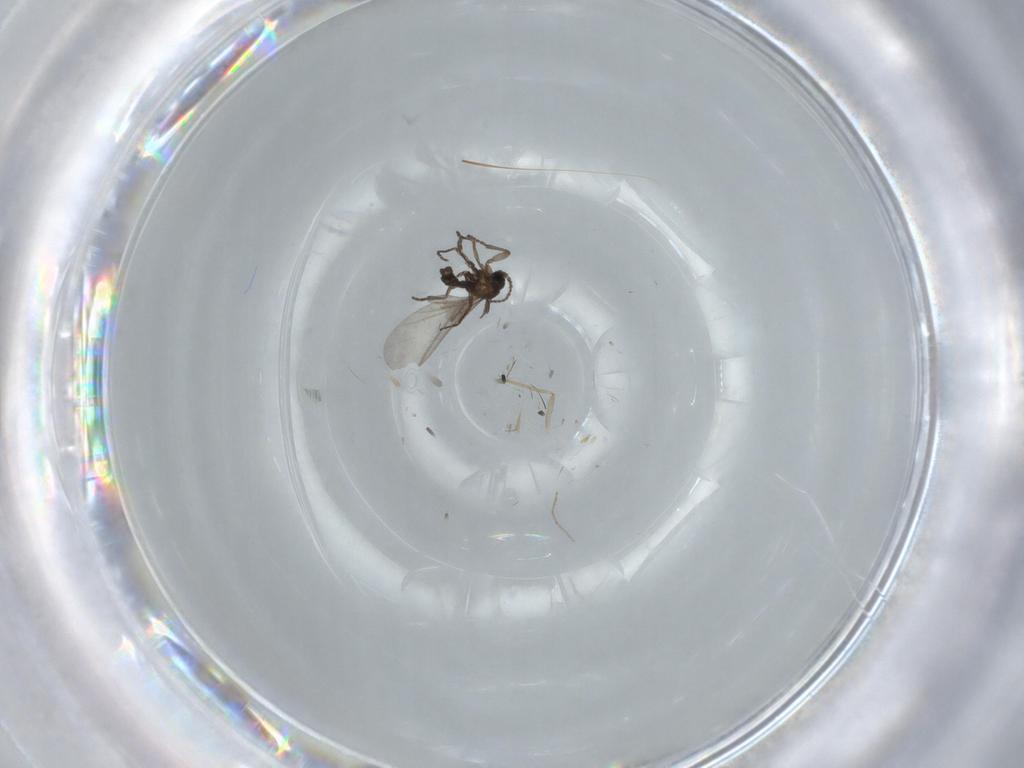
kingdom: Animalia
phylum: Arthropoda
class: Insecta
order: Diptera
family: Chironomidae
